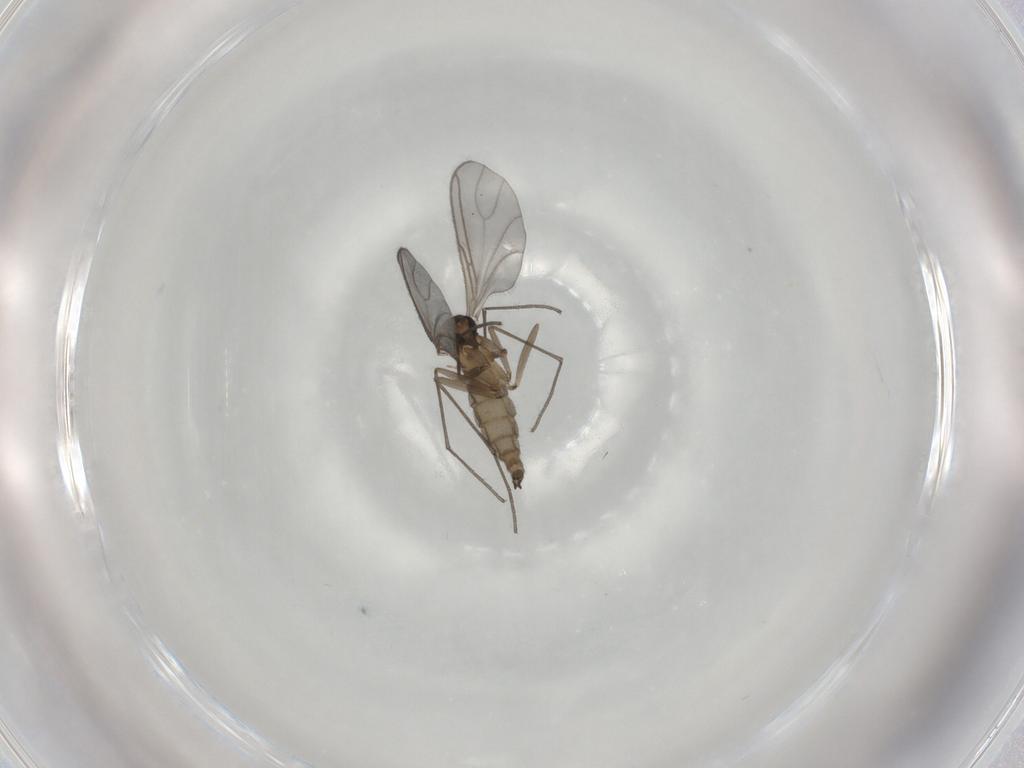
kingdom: Animalia
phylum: Arthropoda
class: Insecta
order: Diptera
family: Sciaridae
